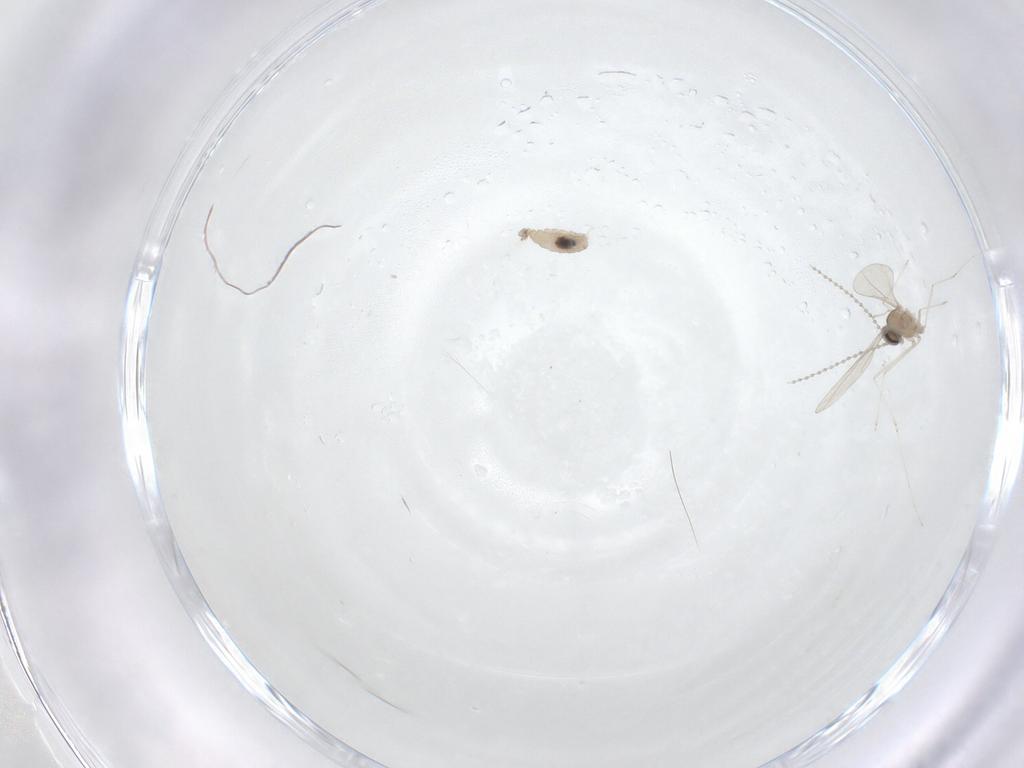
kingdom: Animalia
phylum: Arthropoda
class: Insecta
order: Diptera
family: Cecidomyiidae
